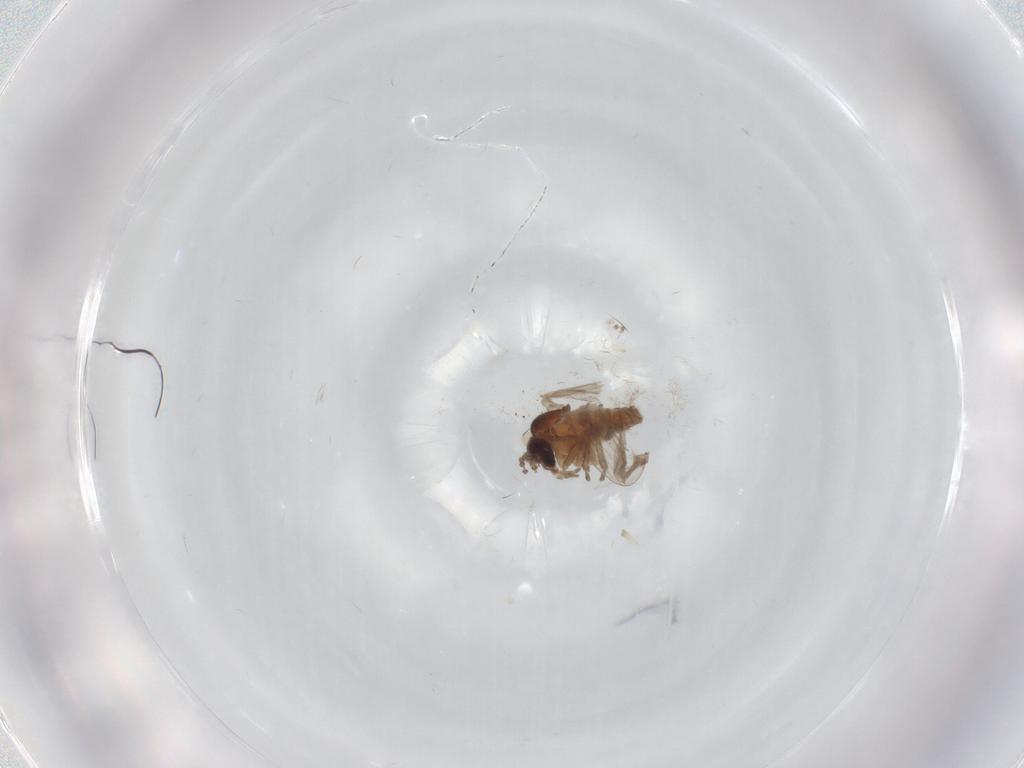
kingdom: Animalia
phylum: Arthropoda
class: Insecta
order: Diptera
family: Psychodidae
